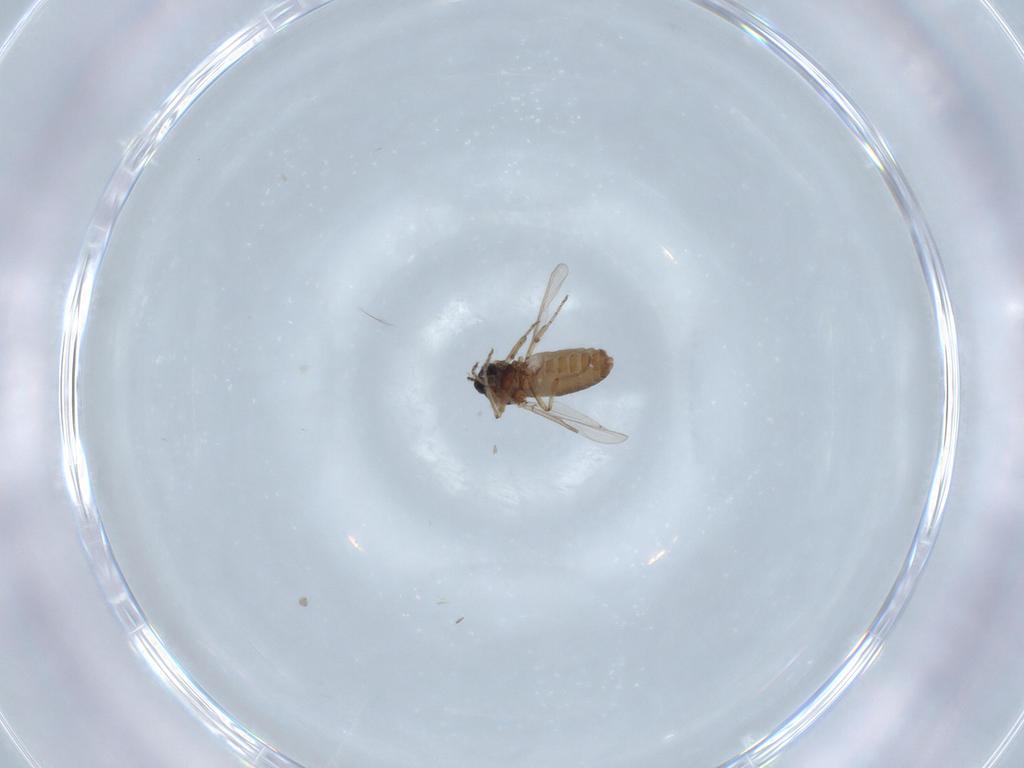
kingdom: Animalia
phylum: Arthropoda
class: Insecta
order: Diptera
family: Ceratopogonidae
